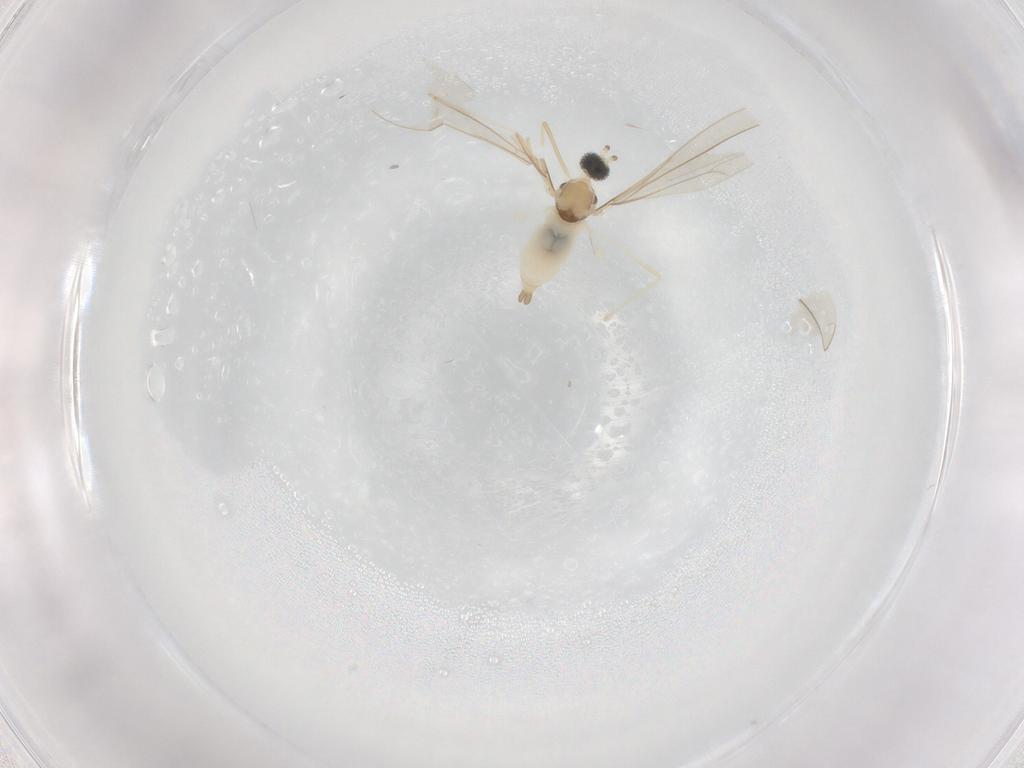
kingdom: Animalia
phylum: Arthropoda
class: Insecta
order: Diptera
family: Cecidomyiidae
